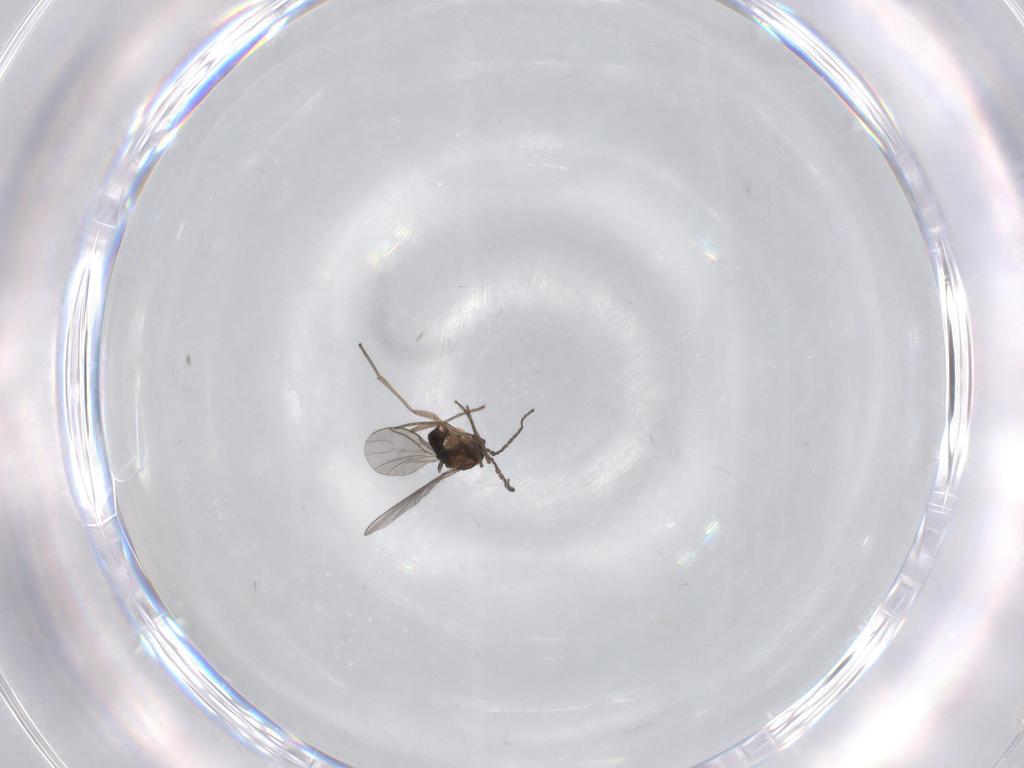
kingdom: Animalia
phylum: Arthropoda
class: Insecta
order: Diptera
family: Sciaridae
